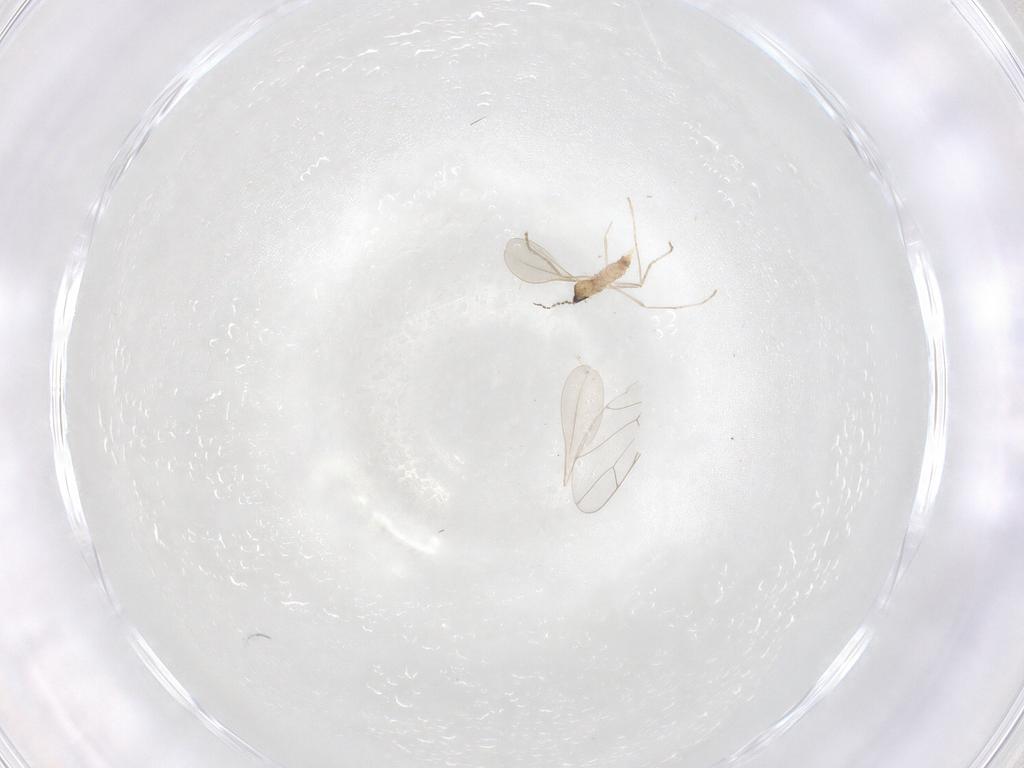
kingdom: Animalia
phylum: Arthropoda
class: Insecta
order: Diptera
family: Cecidomyiidae
